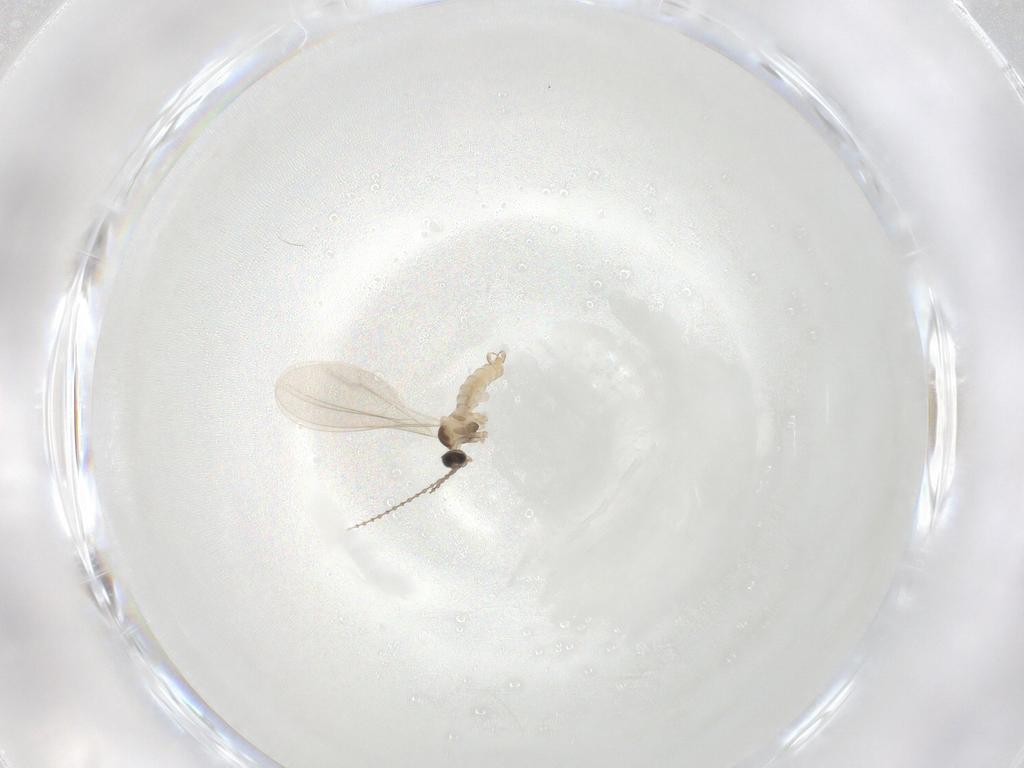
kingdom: Animalia
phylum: Arthropoda
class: Insecta
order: Diptera
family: Cecidomyiidae
